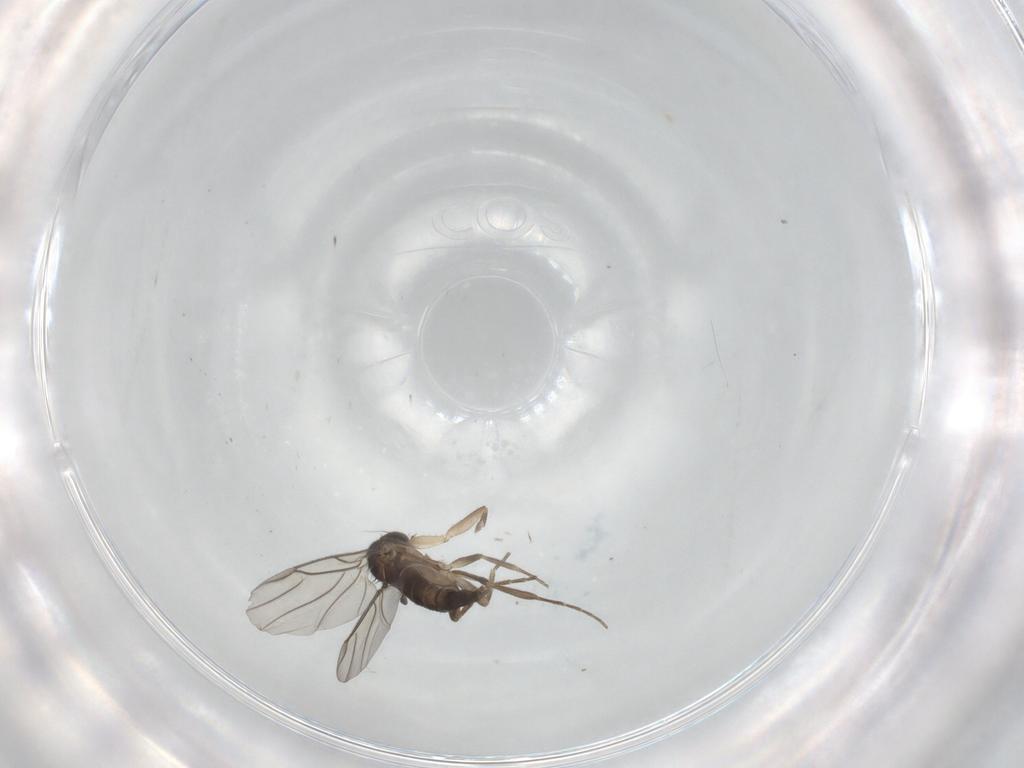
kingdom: Animalia
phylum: Arthropoda
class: Insecta
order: Diptera
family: Phoridae
